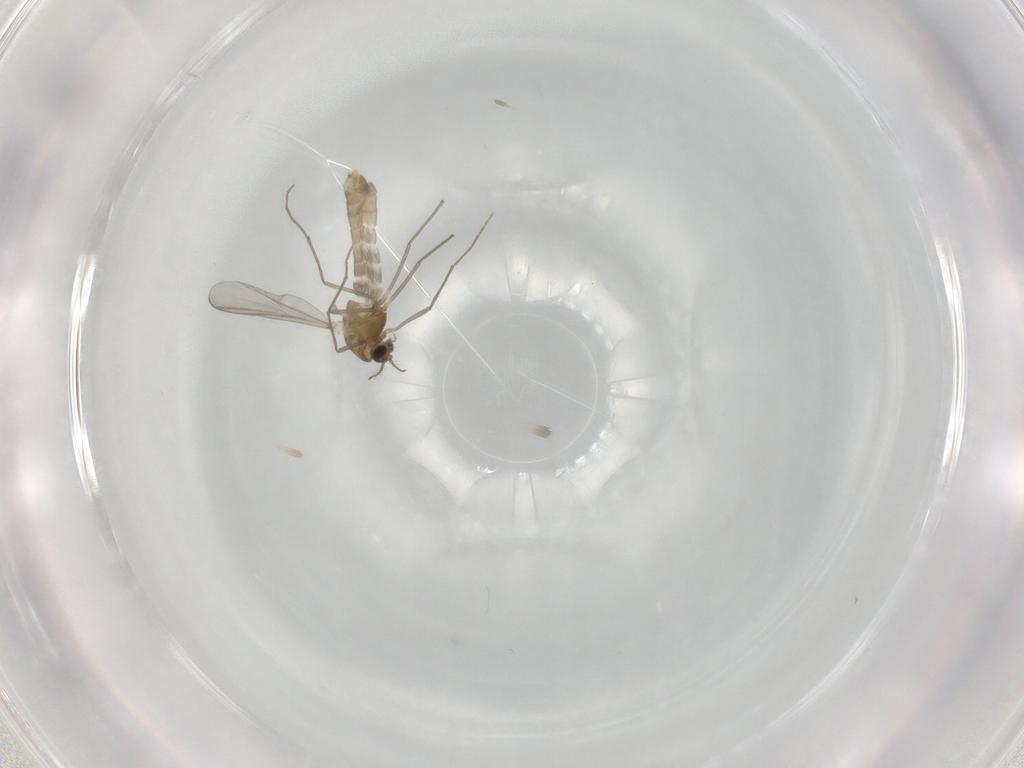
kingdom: Animalia
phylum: Arthropoda
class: Insecta
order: Diptera
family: Chironomidae
